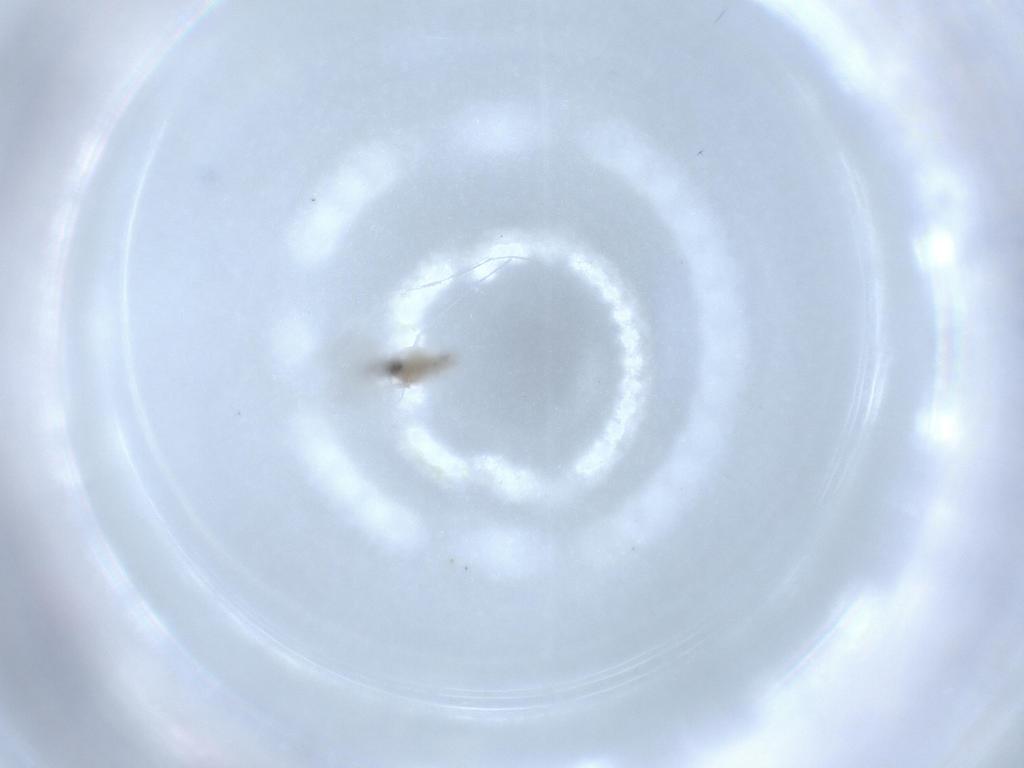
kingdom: Animalia
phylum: Arthropoda
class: Insecta
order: Diptera
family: Cecidomyiidae
